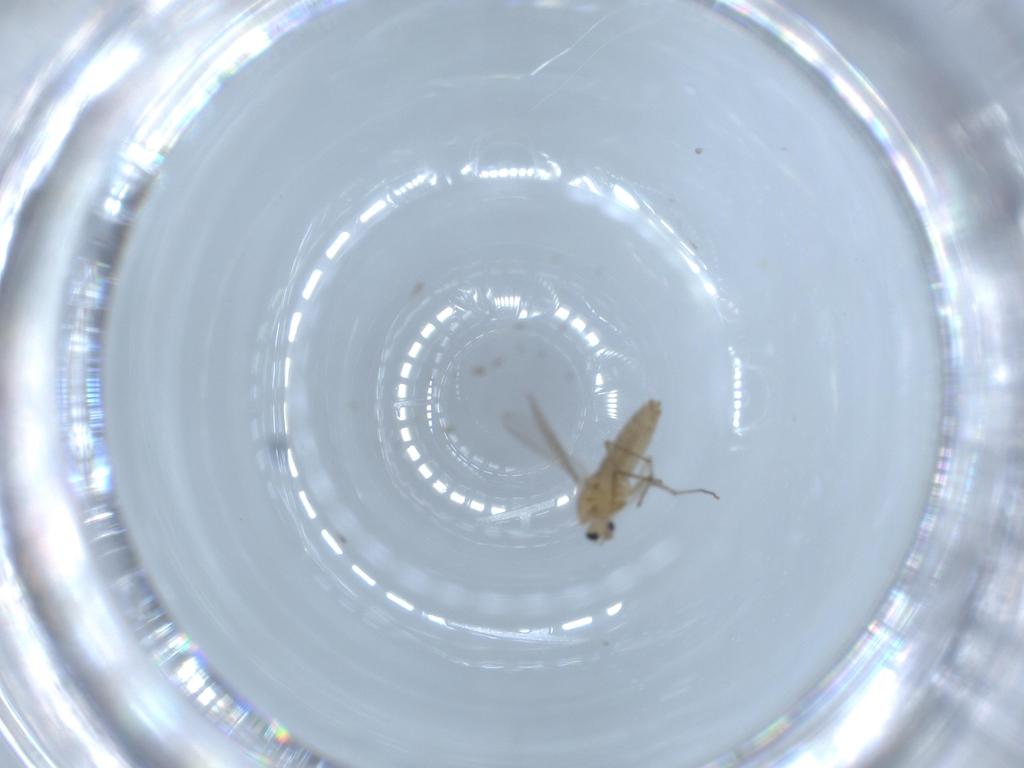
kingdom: Animalia
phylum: Arthropoda
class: Insecta
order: Diptera
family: Chironomidae
